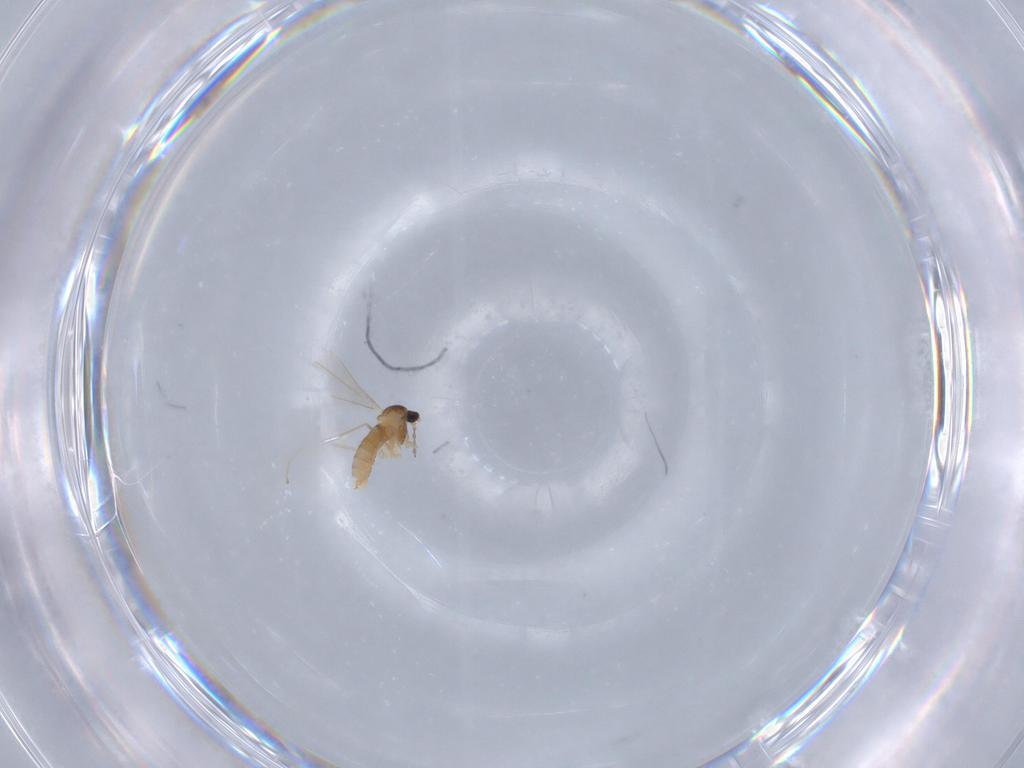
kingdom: Animalia
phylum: Arthropoda
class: Insecta
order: Diptera
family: Cecidomyiidae
